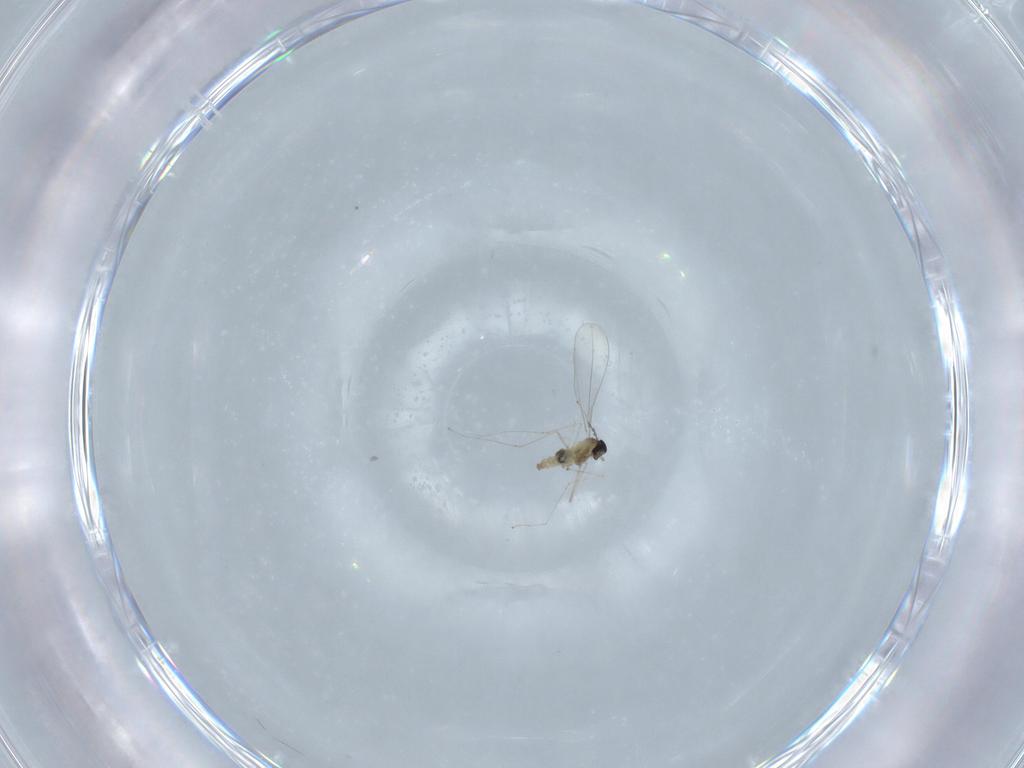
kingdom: Animalia
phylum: Arthropoda
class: Insecta
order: Diptera
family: Cecidomyiidae
